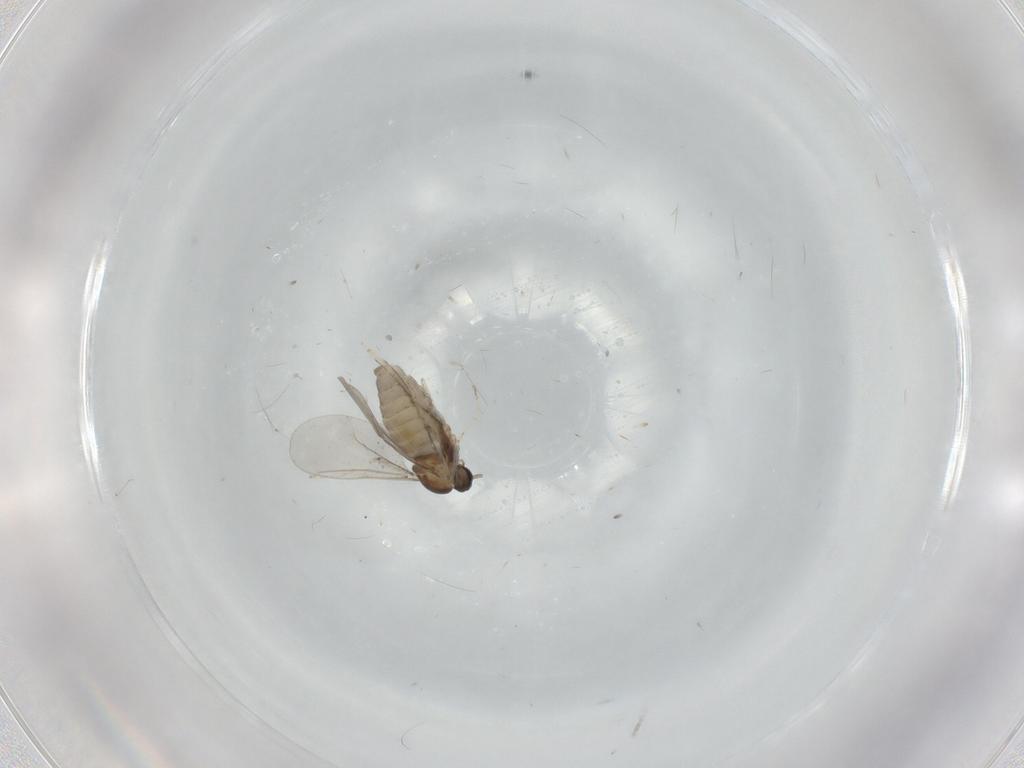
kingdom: Animalia
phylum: Arthropoda
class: Insecta
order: Diptera
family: Cecidomyiidae
